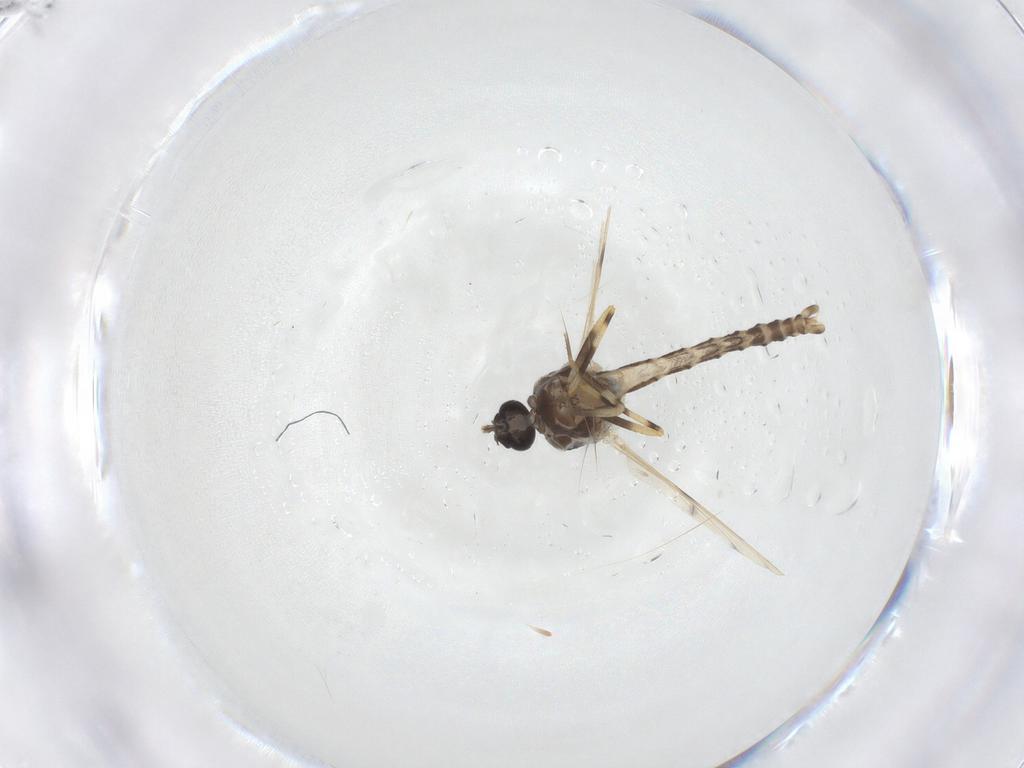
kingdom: Animalia
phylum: Arthropoda
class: Insecta
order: Diptera
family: Ceratopogonidae
